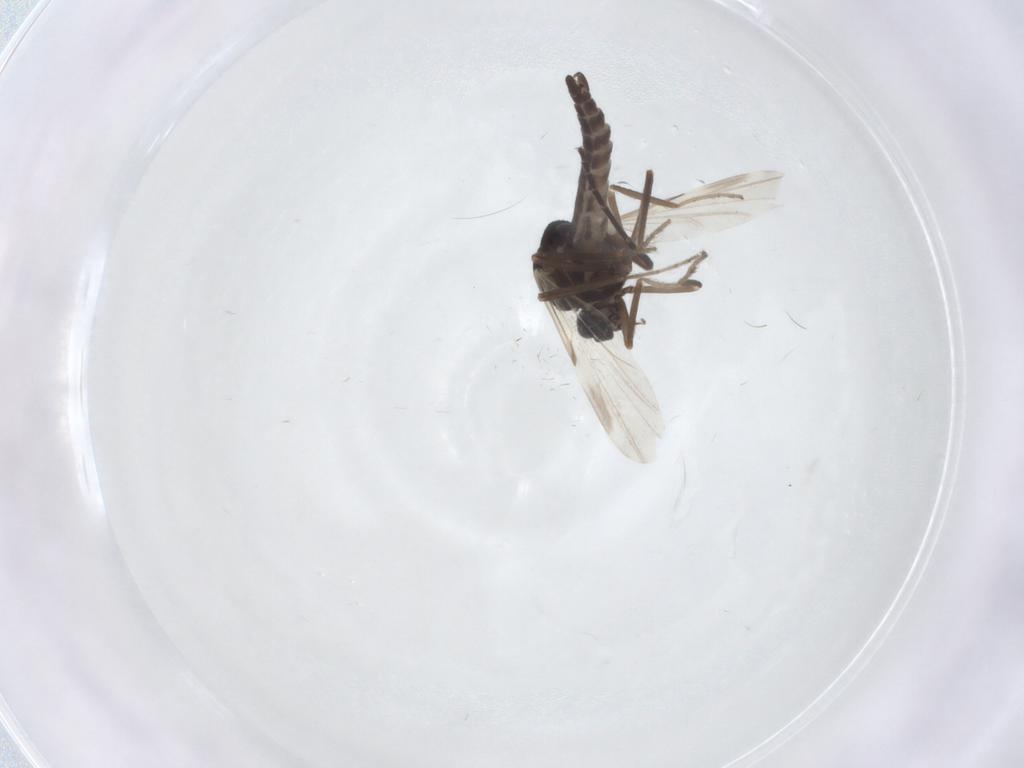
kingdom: Animalia
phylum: Arthropoda
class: Insecta
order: Diptera
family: Ceratopogonidae
